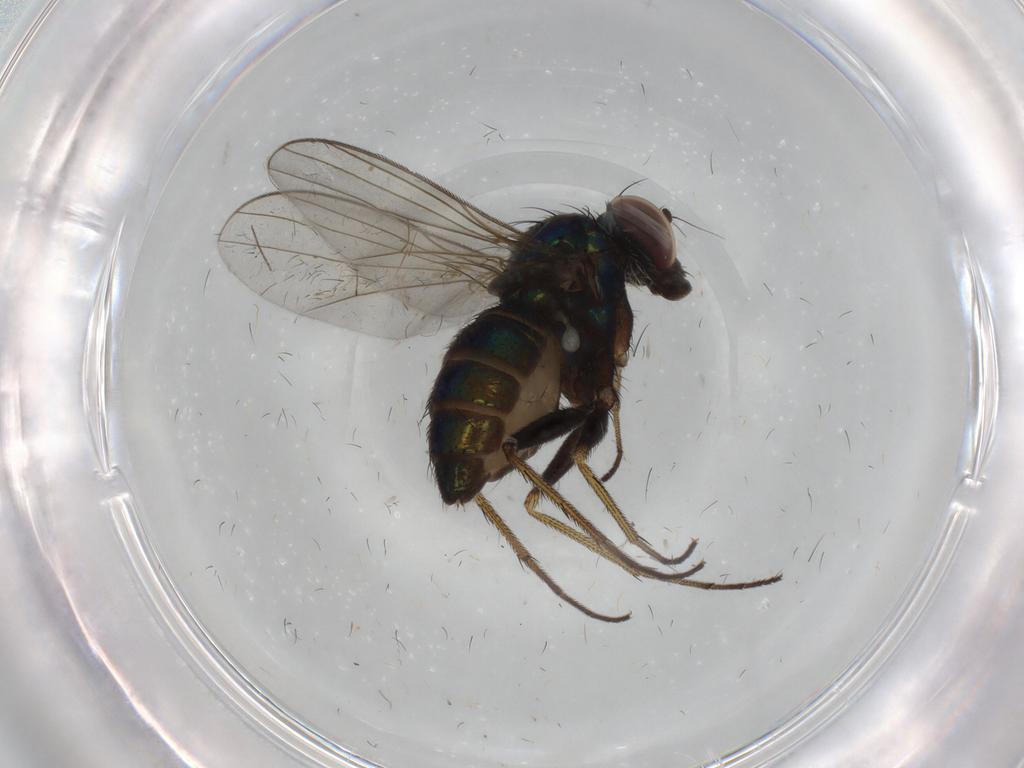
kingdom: Animalia
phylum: Arthropoda
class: Insecta
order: Diptera
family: Dolichopodidae
